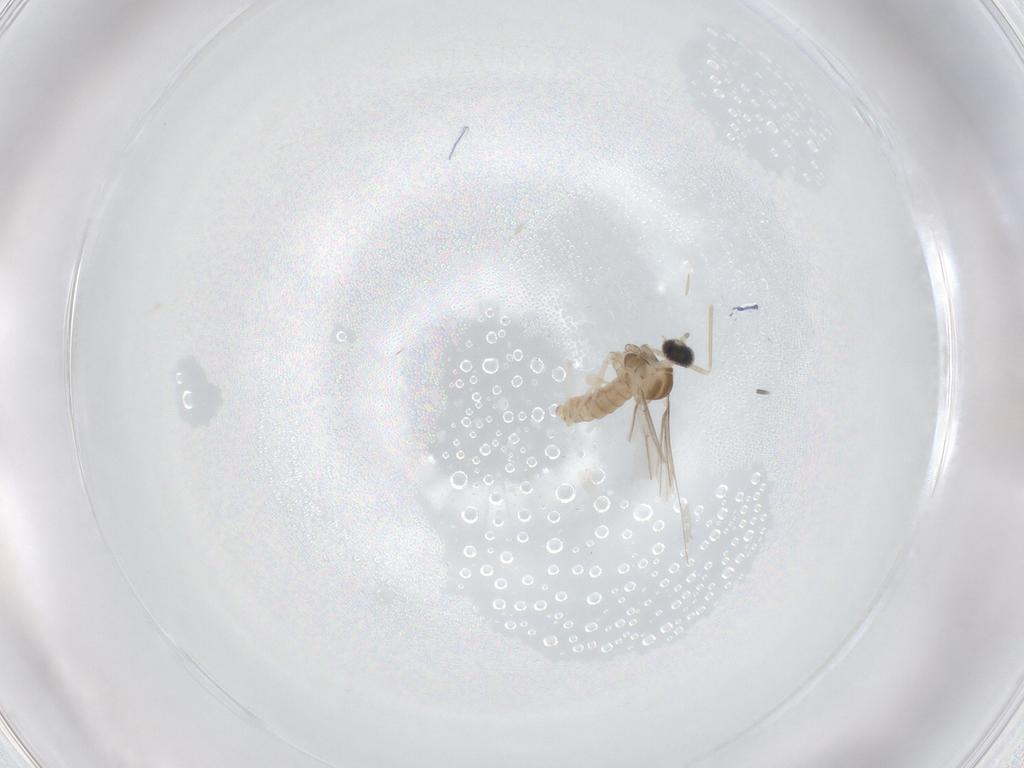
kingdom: Animalia
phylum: Arthropoda
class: Insecta
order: Diptera
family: Cecidomyiidae
